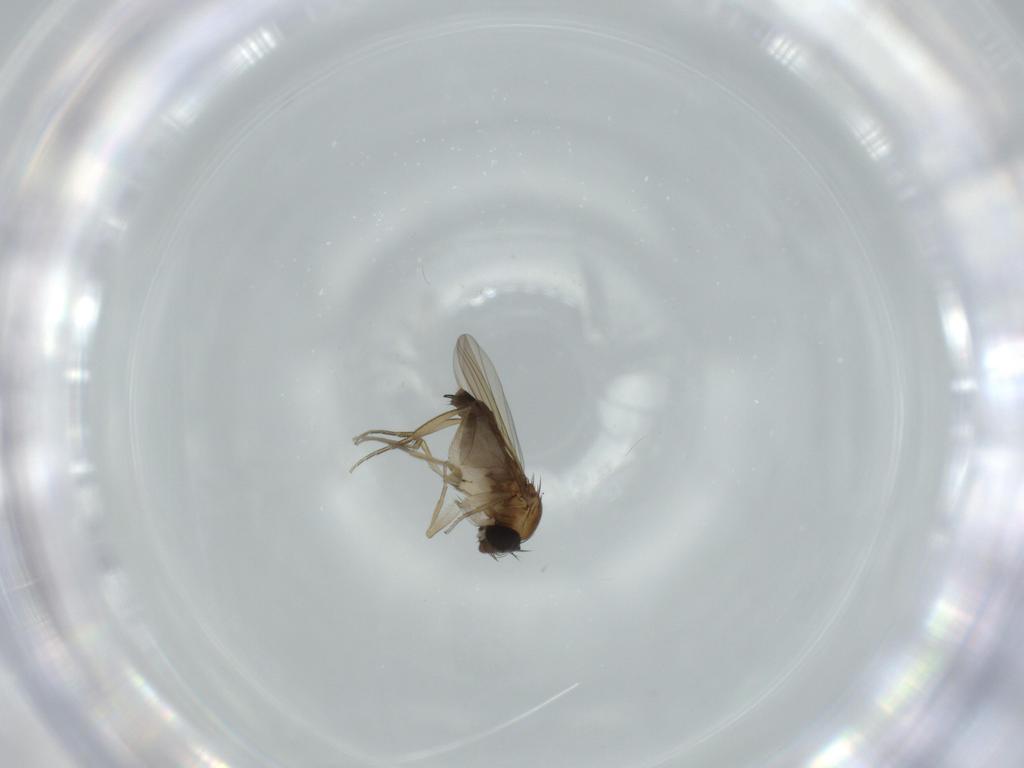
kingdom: Animalia
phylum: Arthropoda
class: Insecta
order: Diptera
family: Phoridae
